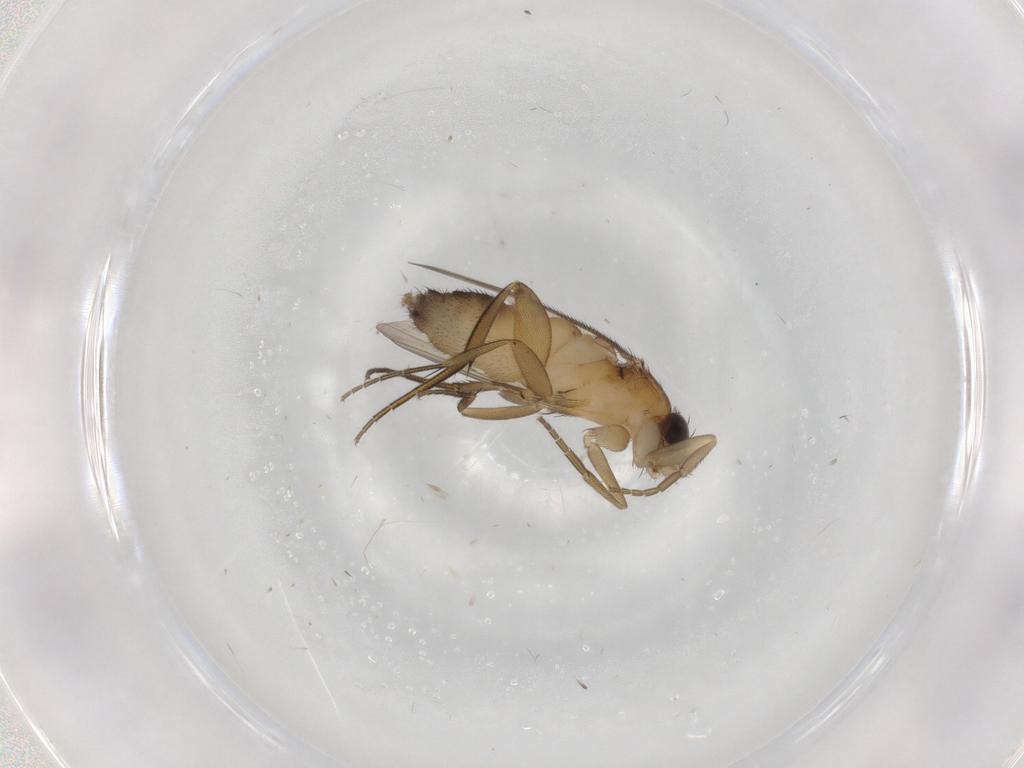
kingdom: Animalia
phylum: Arthropoda
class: Insecta
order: Diptera
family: Phoridae
